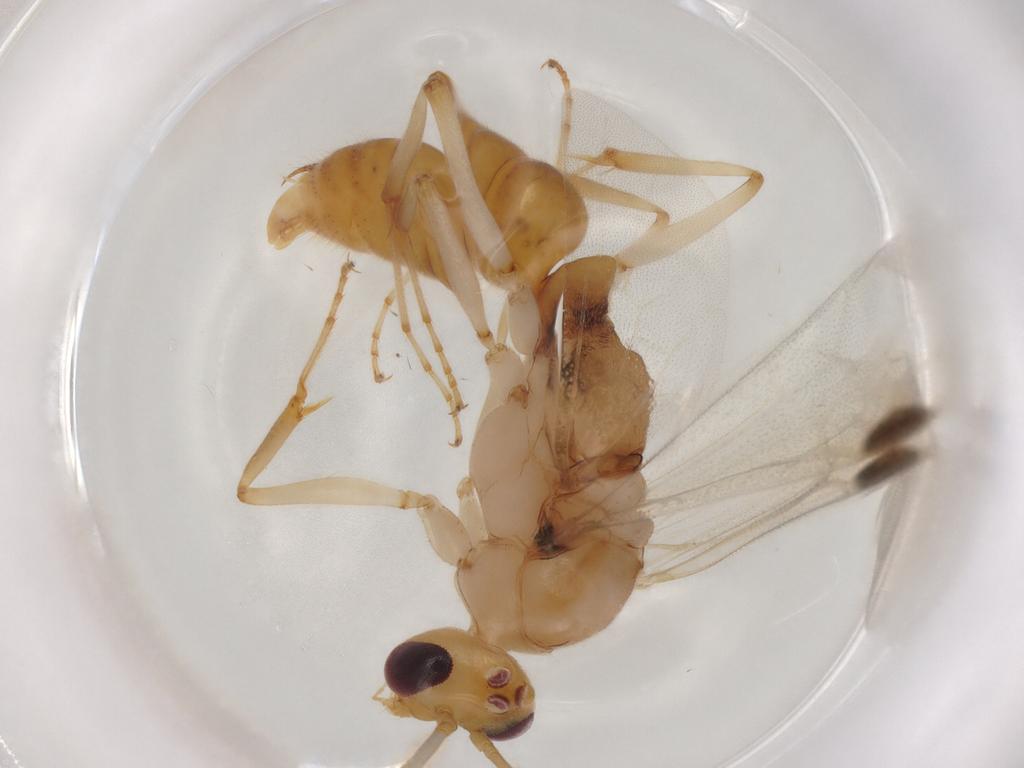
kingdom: Animalia
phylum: Arthropoda
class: Insecta
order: Hymenoptera
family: Formicidae
